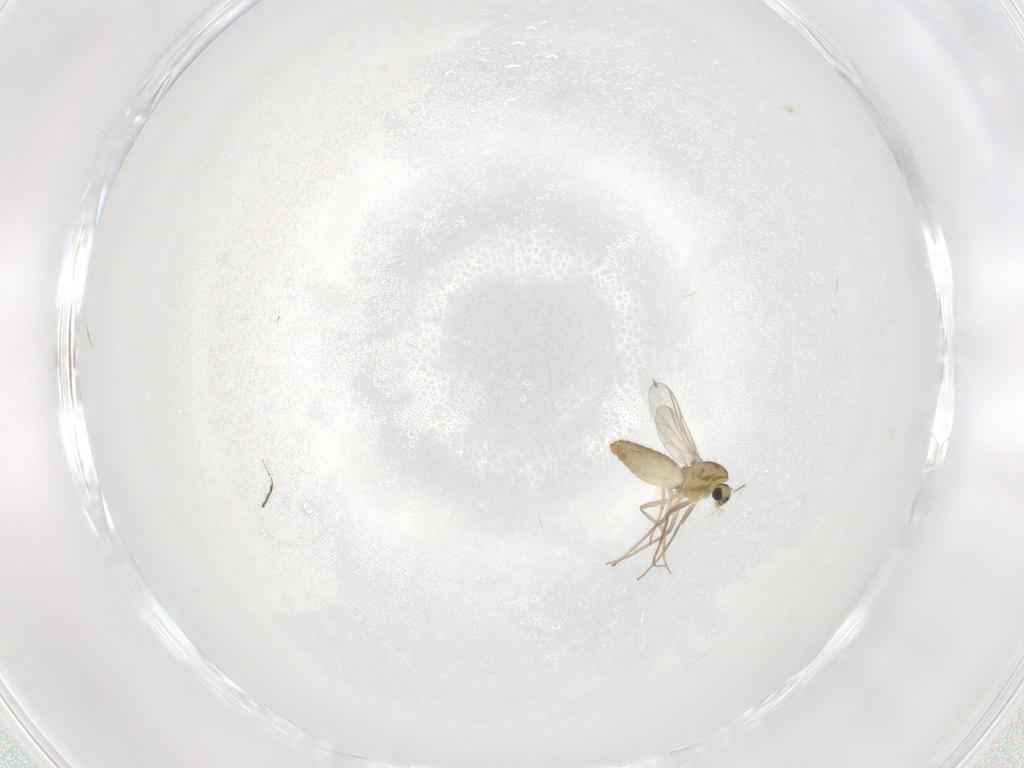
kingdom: Animalia
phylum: Arthropoda
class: Insecta
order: Diptera
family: Chironomidae
